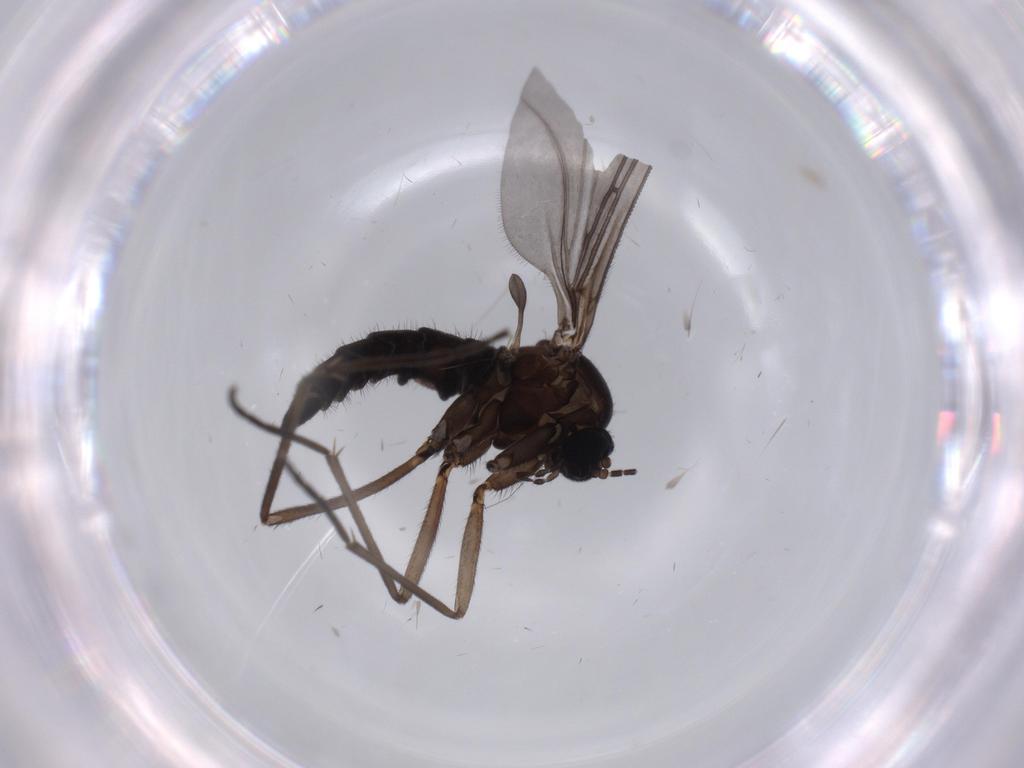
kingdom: Animalia
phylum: Arthropoda
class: Insecta
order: Diptera
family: Sciaridae
